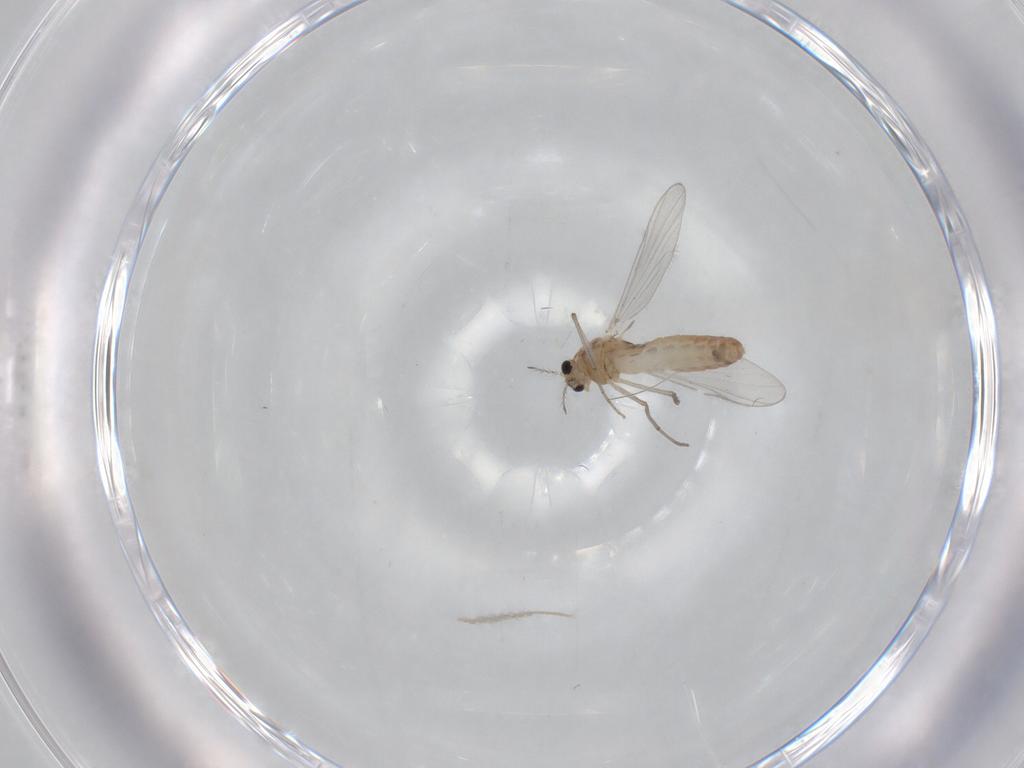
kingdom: Animalia
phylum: Arthropoda
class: Insecta
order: Diptera
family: Chironomidae
